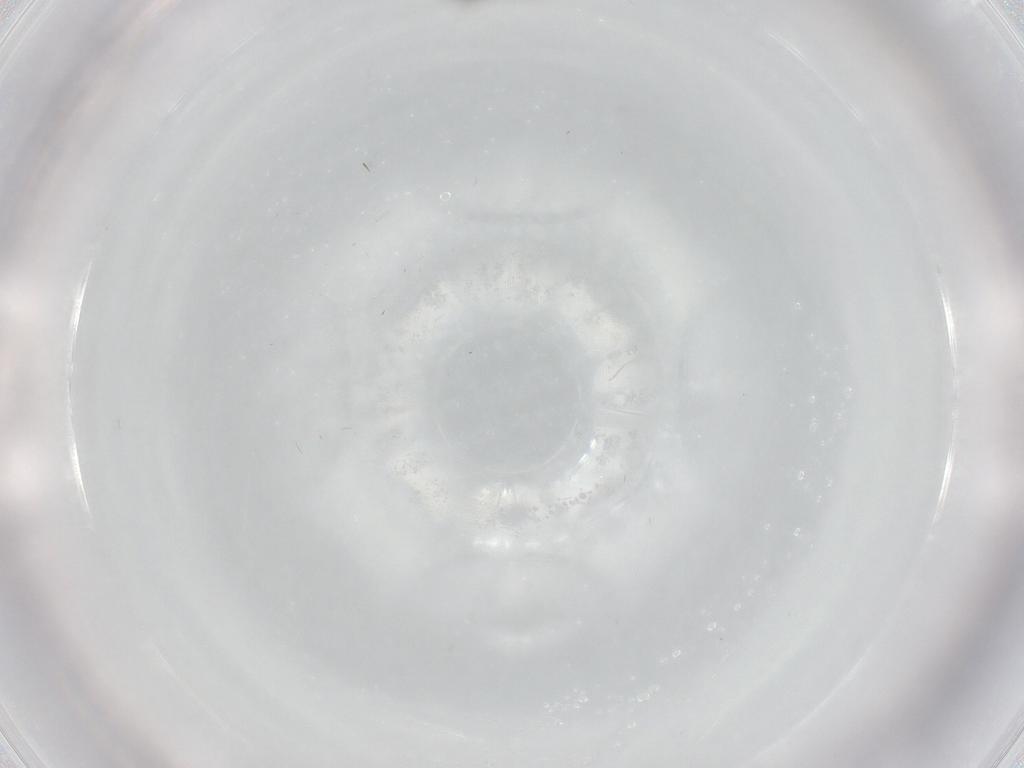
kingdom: Animalia
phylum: Arthropoda
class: Insecta
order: Hymenoptera
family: Aphelinidae
